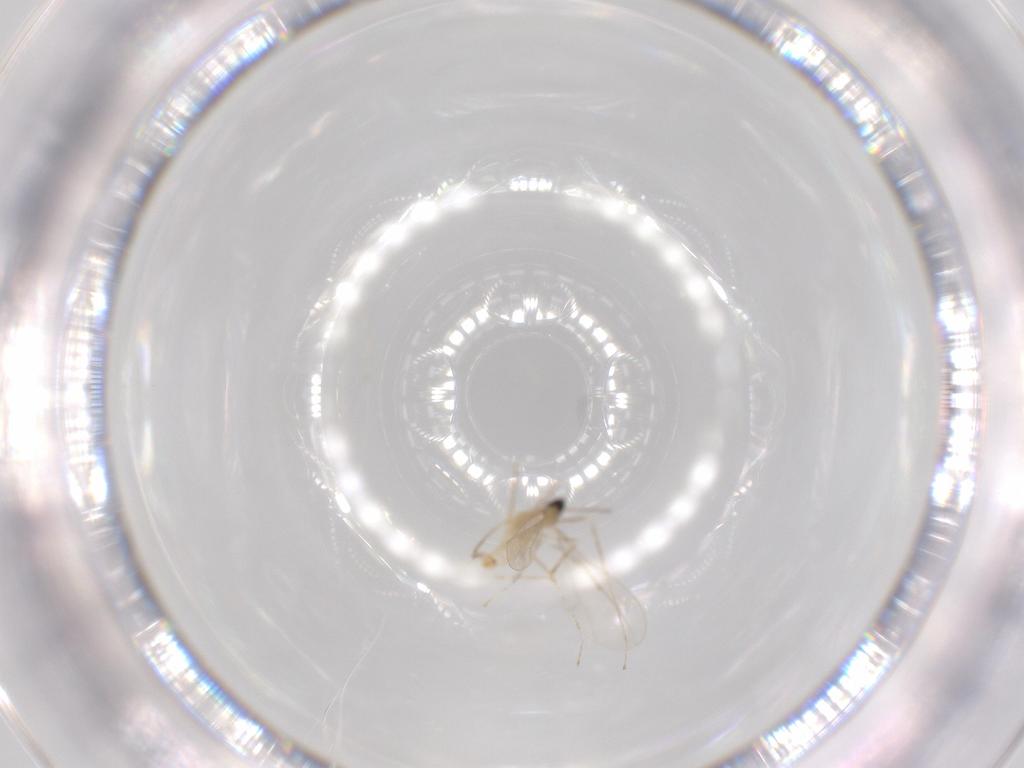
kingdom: Animalia
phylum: Arthropoda
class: Insecta
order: Diptera
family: Cecidomyiidae
